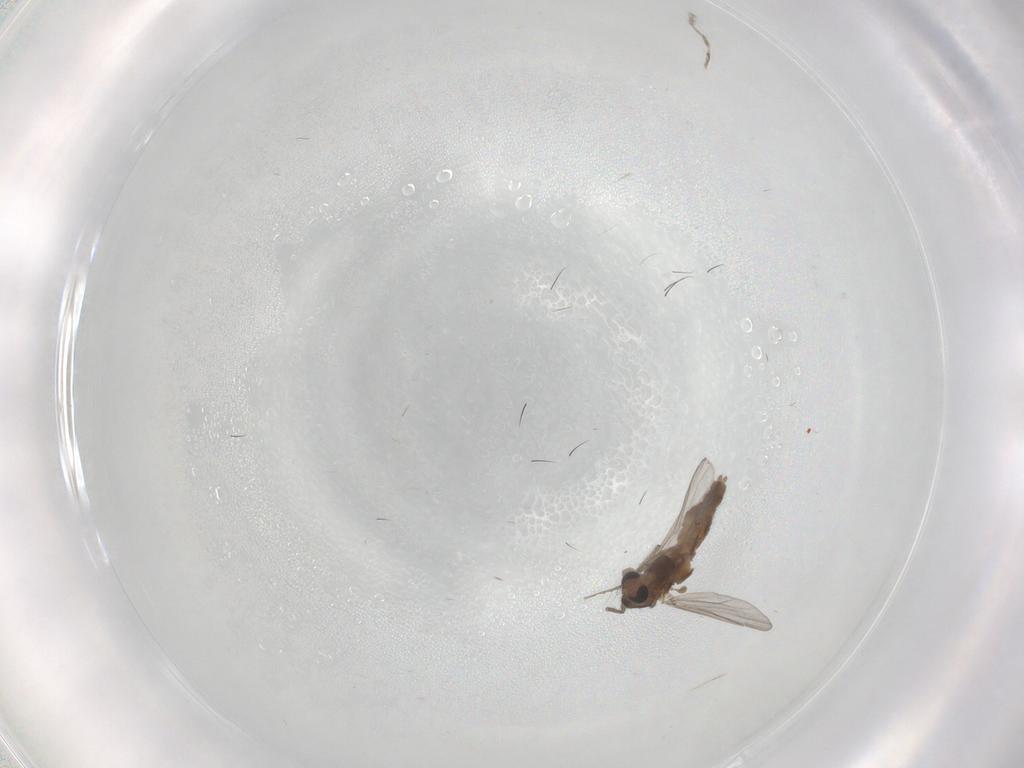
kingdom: Animalia
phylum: Arthropoda
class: Insecta
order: Diptera
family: Chironomidae
